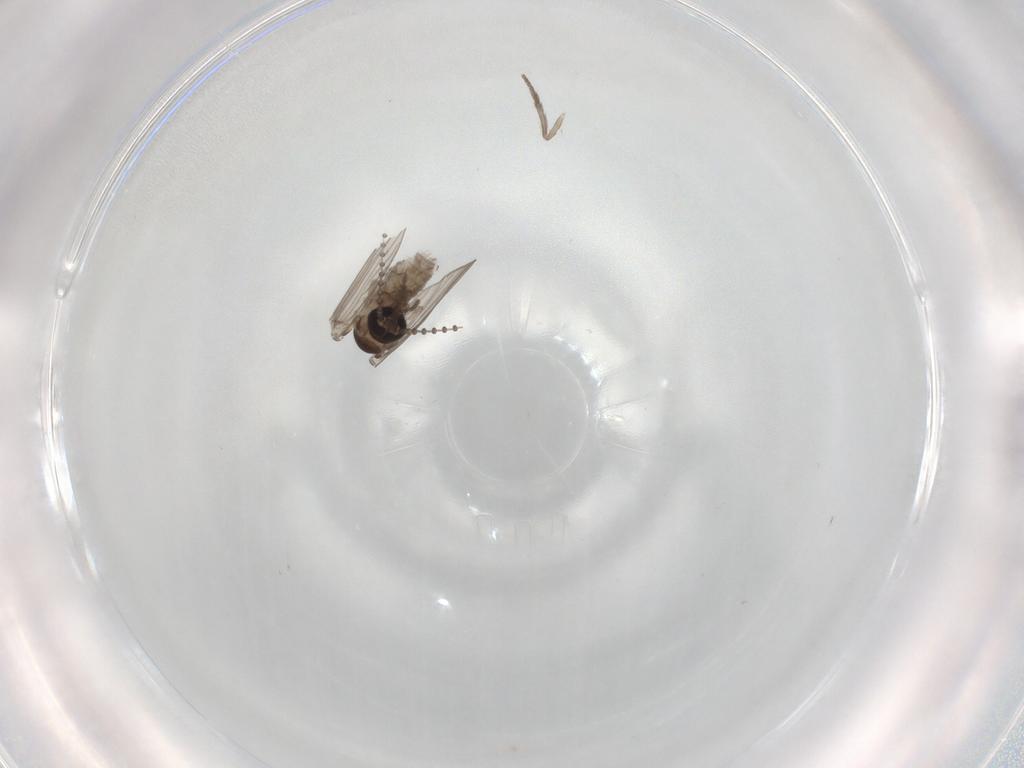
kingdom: Animalia
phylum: Arthropoda
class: Insecta
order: Diptera
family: Psychodidae
